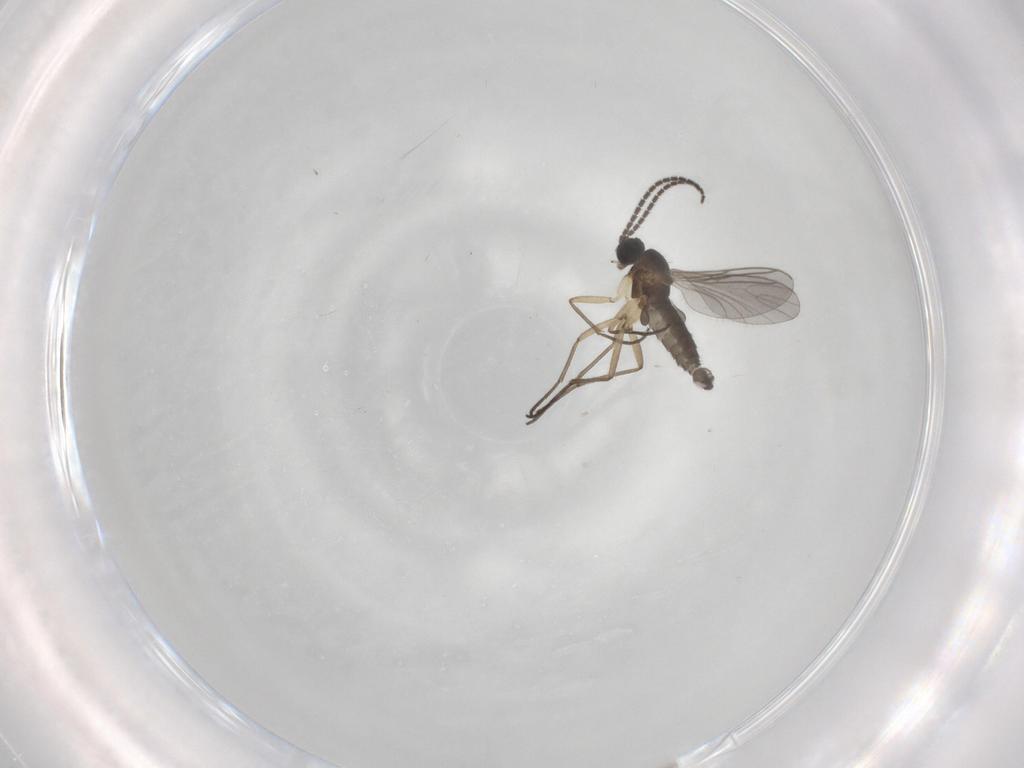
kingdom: Animalia
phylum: Arthropoda
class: Insecta
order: Diptera
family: Sciaridae
